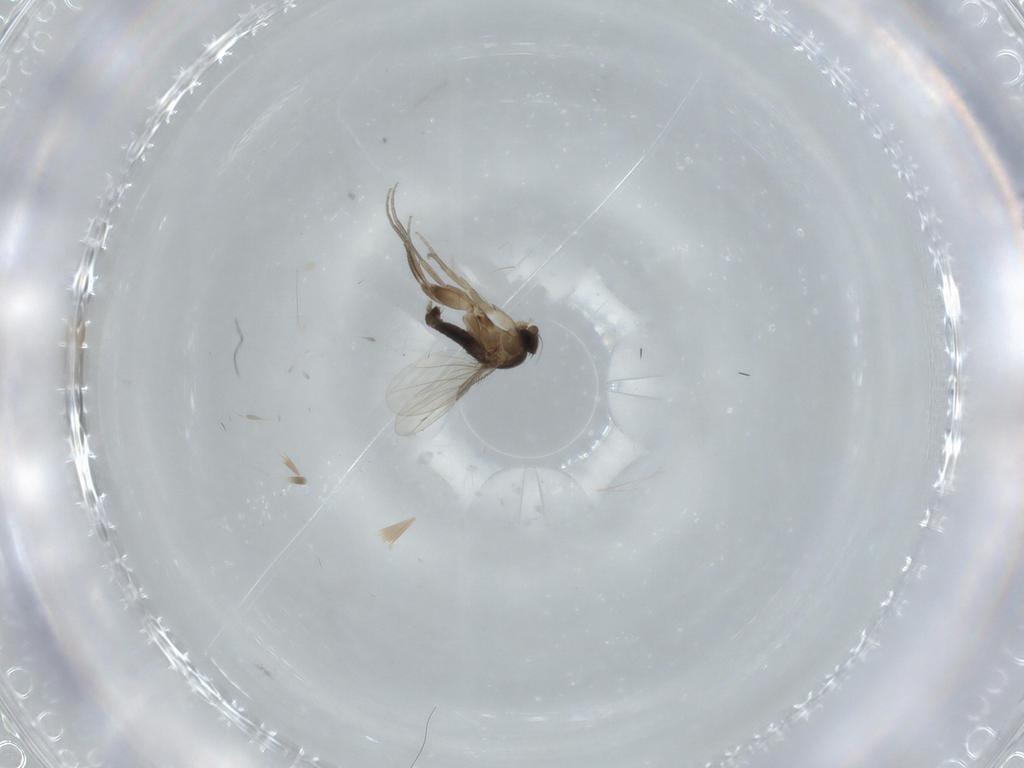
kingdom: Animalia
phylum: Arthropoda
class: Insecta
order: Diptera
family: Phoridae
